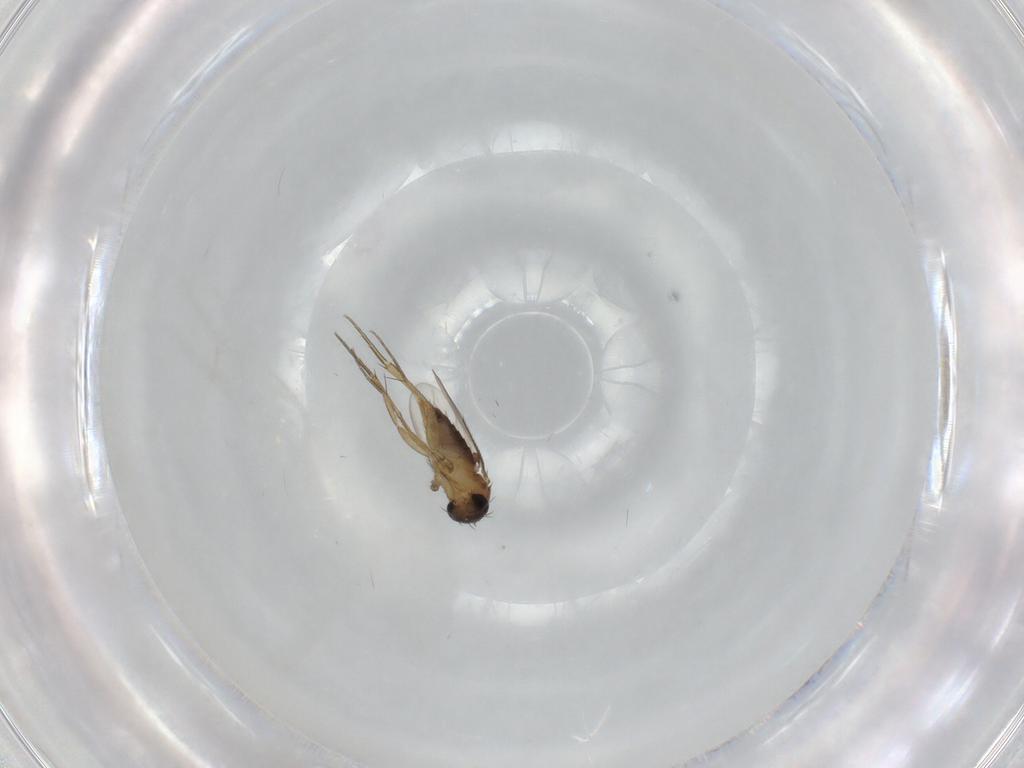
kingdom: Animalia
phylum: Arthropoda
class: Insecta
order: Diptera
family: Phoridae
